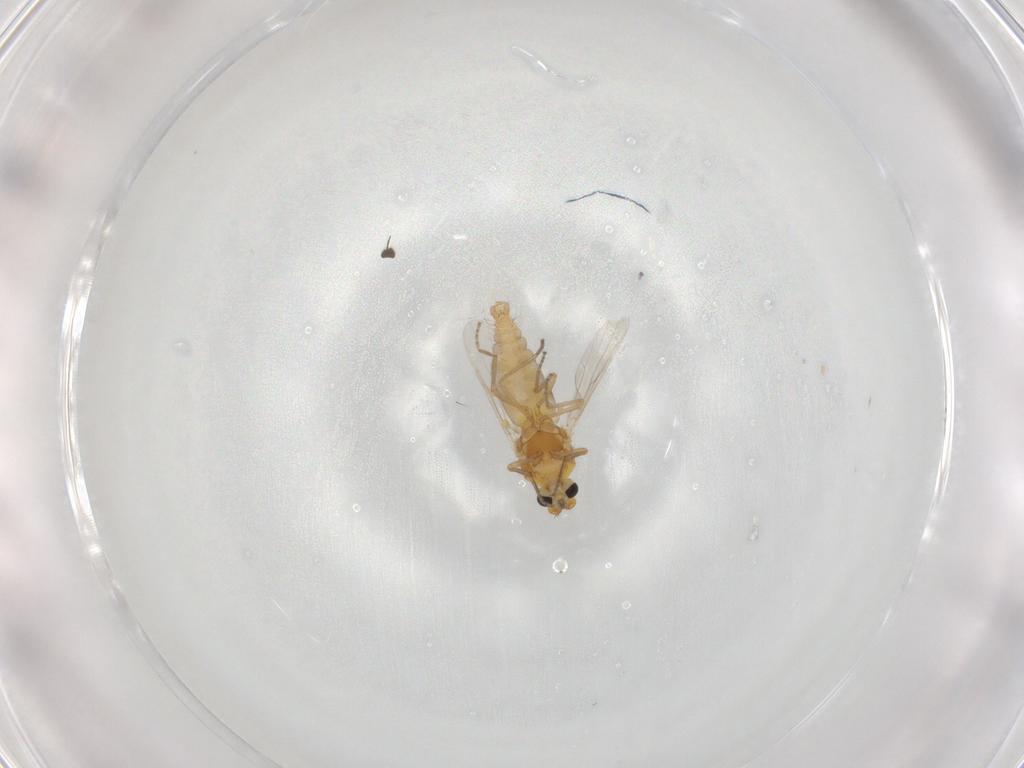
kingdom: Animalia
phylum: Arthropoda
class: Insecta
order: Diptera
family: Ceratopogonidae
